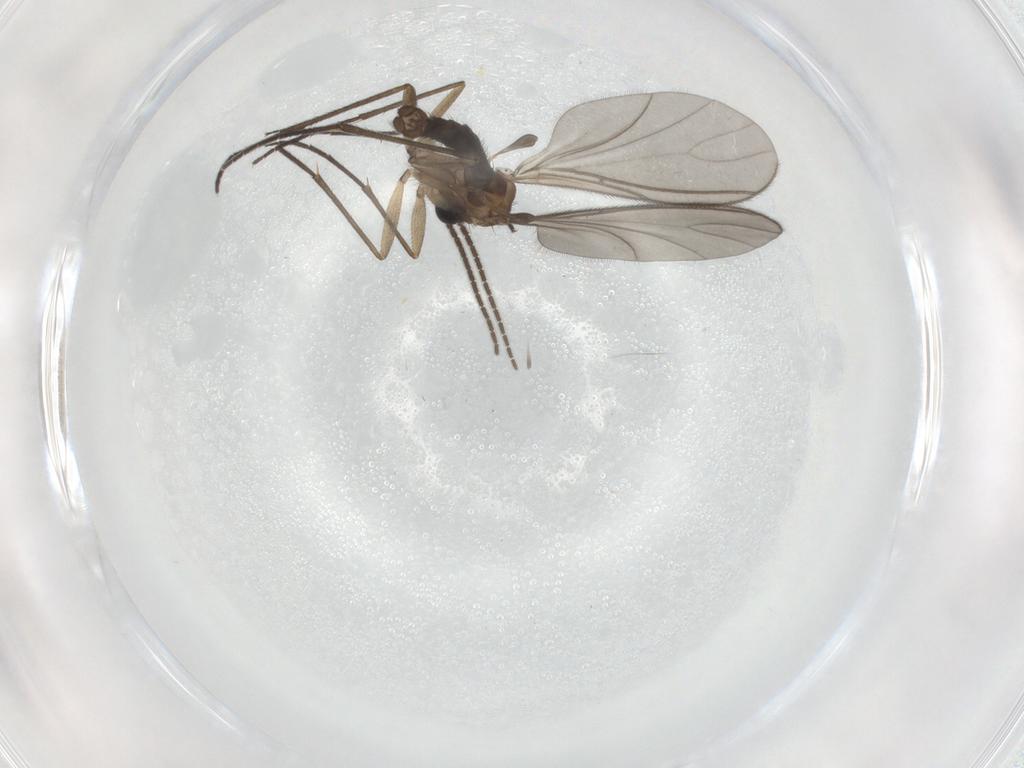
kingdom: Animalia
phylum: Arthropoda
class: Insecta
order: Diptera
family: Sciaridae
